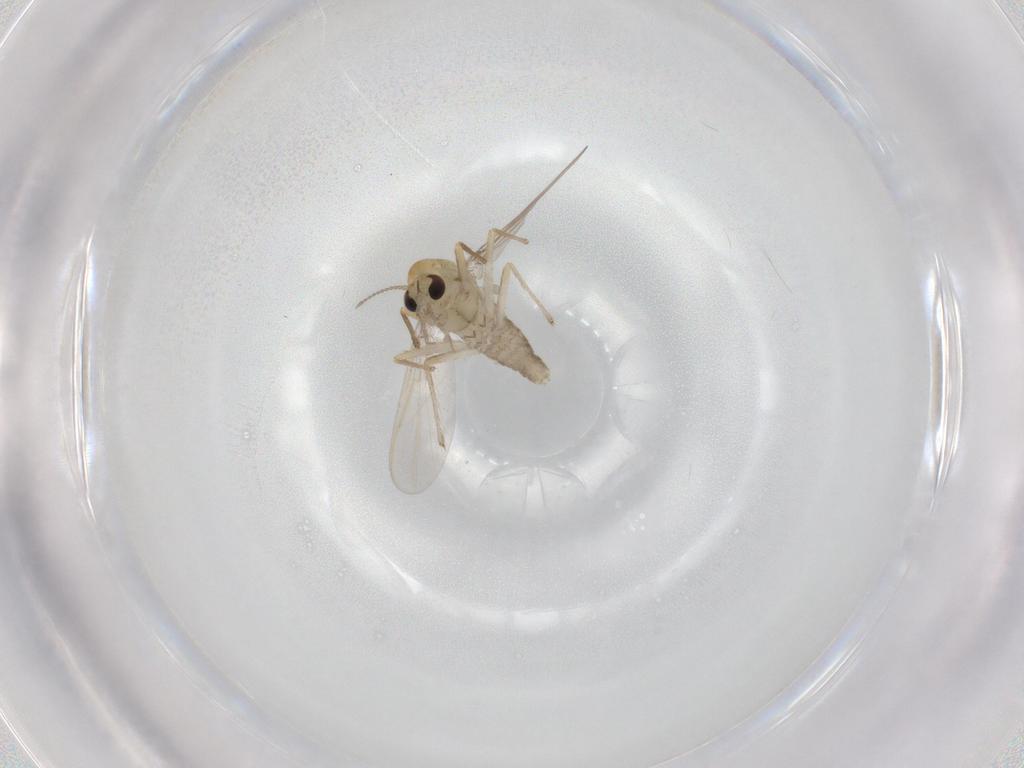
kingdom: Animalia
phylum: Arthropoda
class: Insecta
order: Diptera
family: Chironomidae
